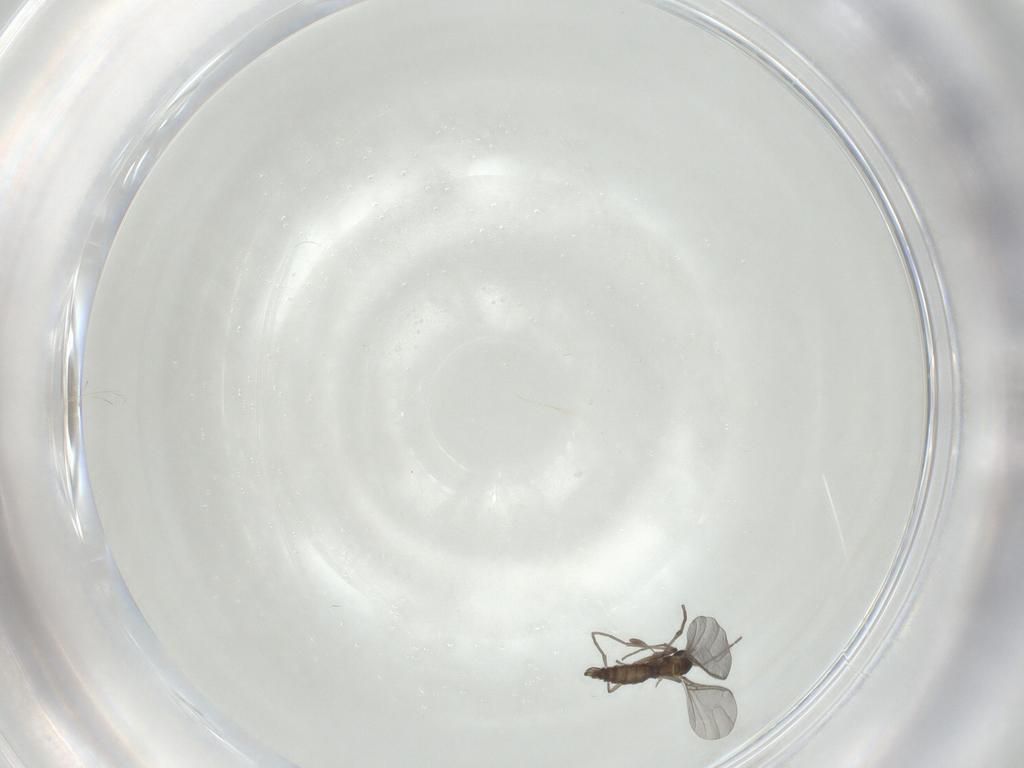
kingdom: Animalia
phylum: Arthropoda
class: Insecta
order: Diptera
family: Sciaridae
